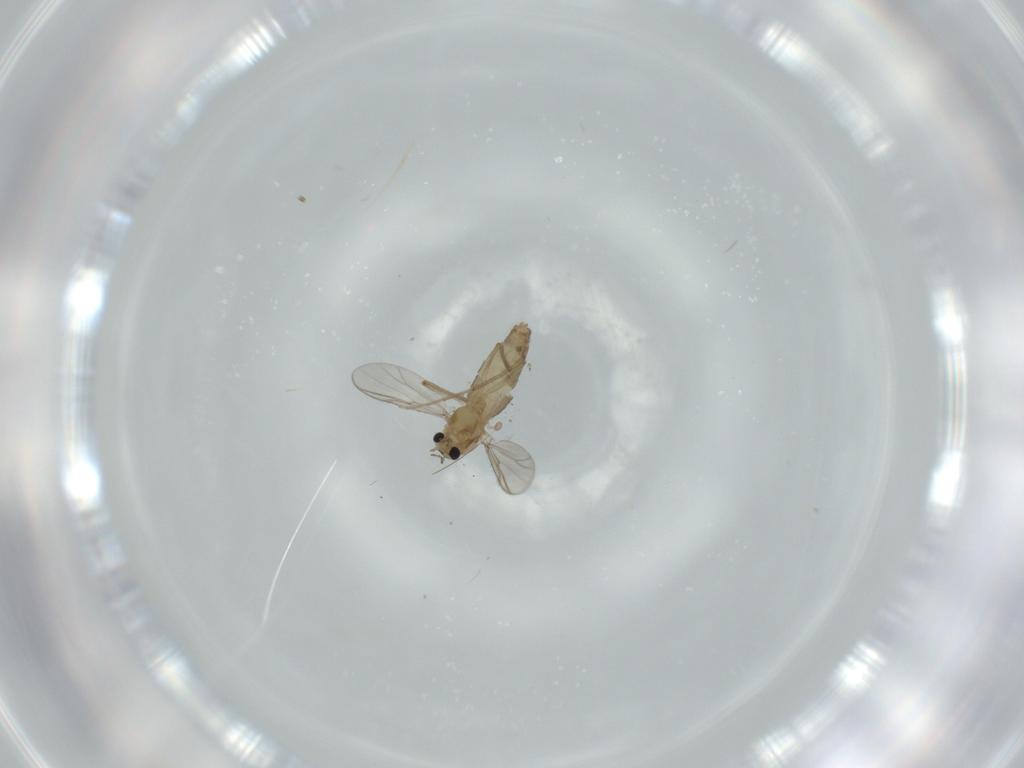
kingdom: Animalia
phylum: Arthropoda
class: Insecta
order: Diptera
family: Chironomidae
